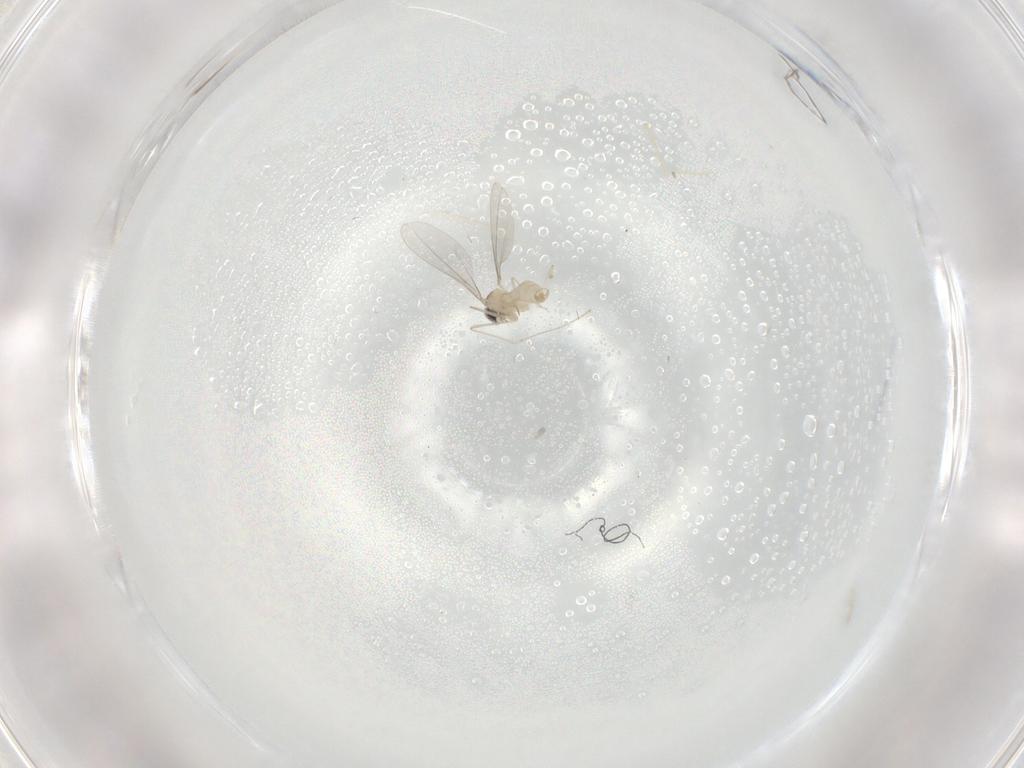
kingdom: Animalia
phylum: Arthropoda
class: Insecta
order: Diptera
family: Cecidomyiidae
